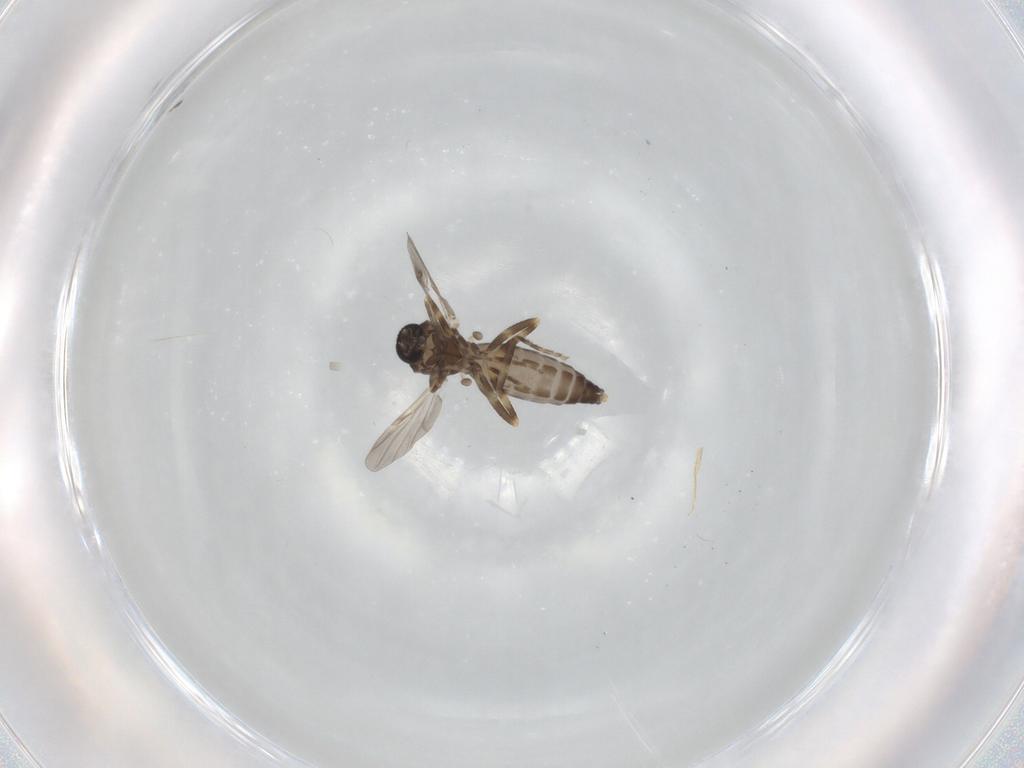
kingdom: Animalia
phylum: Arthropoda
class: Insecta
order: Diptera
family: Ceratopogonidae
